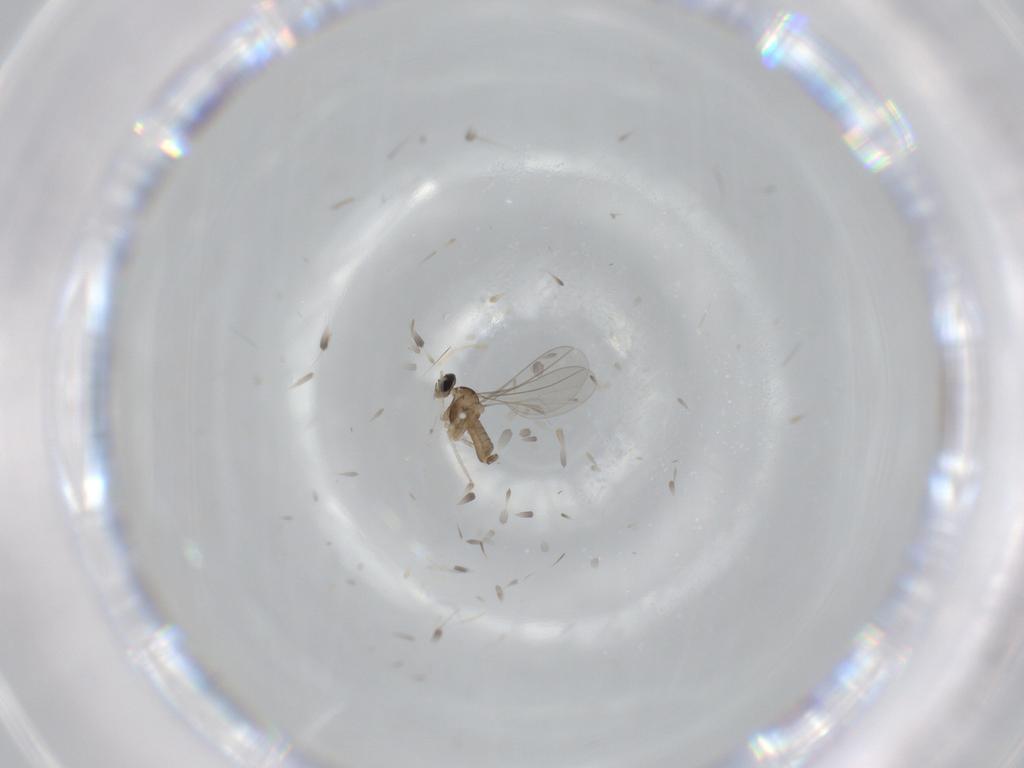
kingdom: Animalia
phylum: Arthropoda
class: Insecta
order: Diptera
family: Cecidomyiidae
